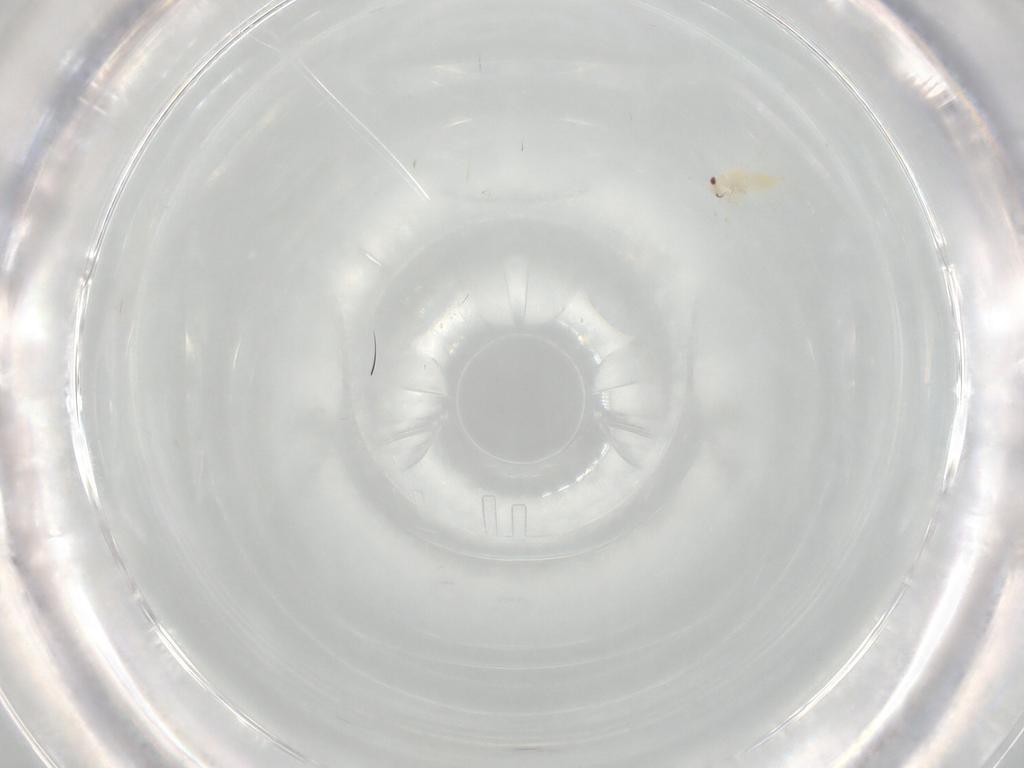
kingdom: Animalia
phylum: Arthropoda
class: Insecta
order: Hemiptera
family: Aleyrodidae
